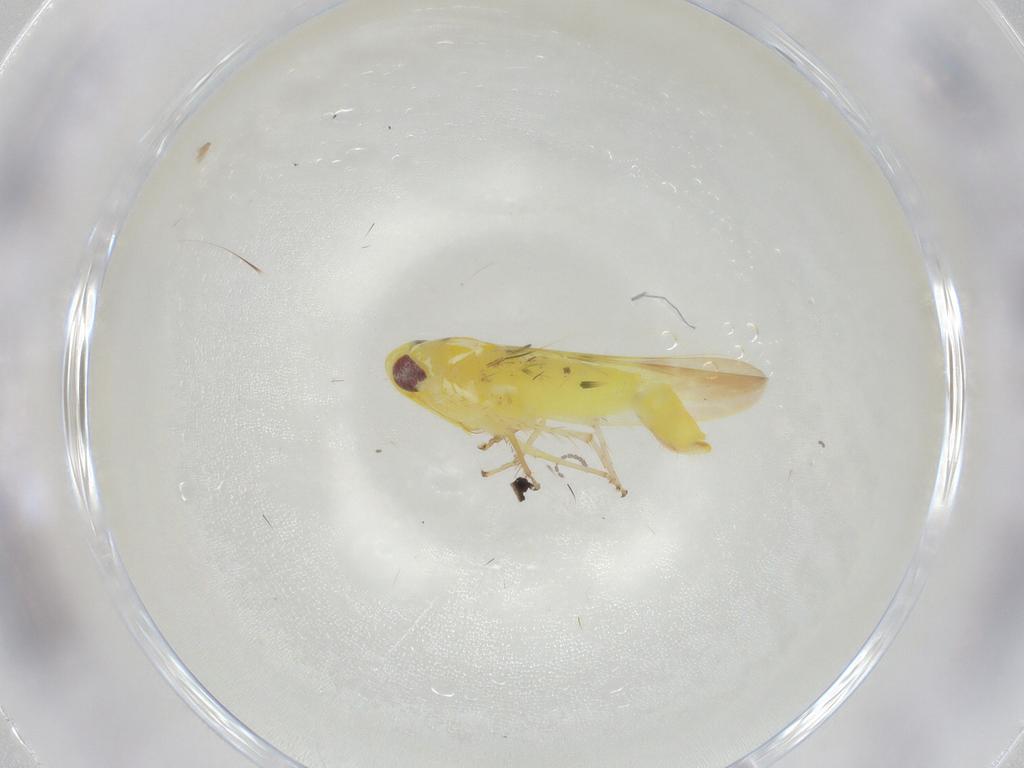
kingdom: Animalia
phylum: Arthropoda
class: Insecta
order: Hemiptera
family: Cicadellidae
